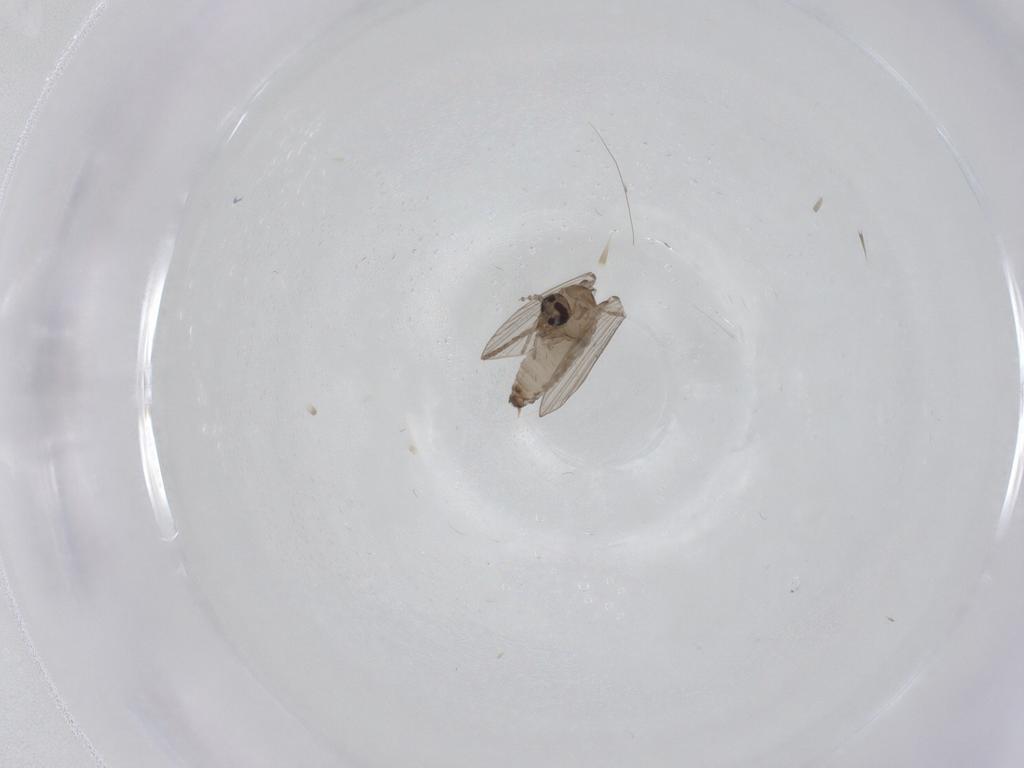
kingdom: Animalia
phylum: Arthropoda
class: Insecta
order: Diptera
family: Psychodidae
